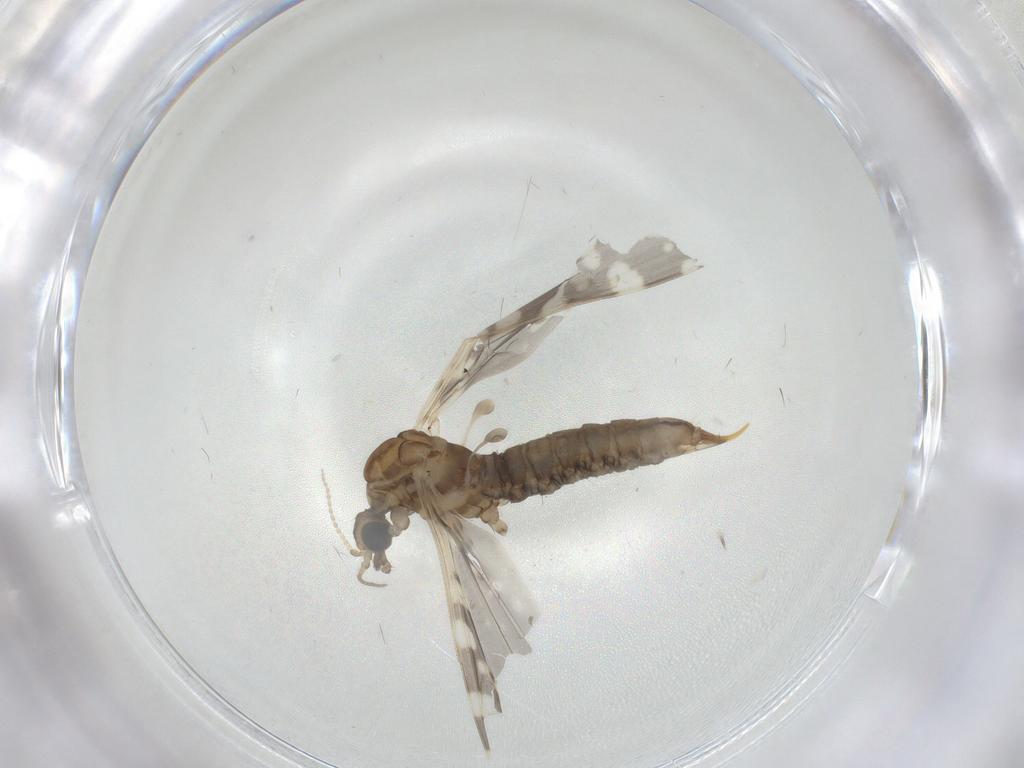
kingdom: Animalia
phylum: Arthropoda
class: Insecta
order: Diptera
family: Limoniidae
